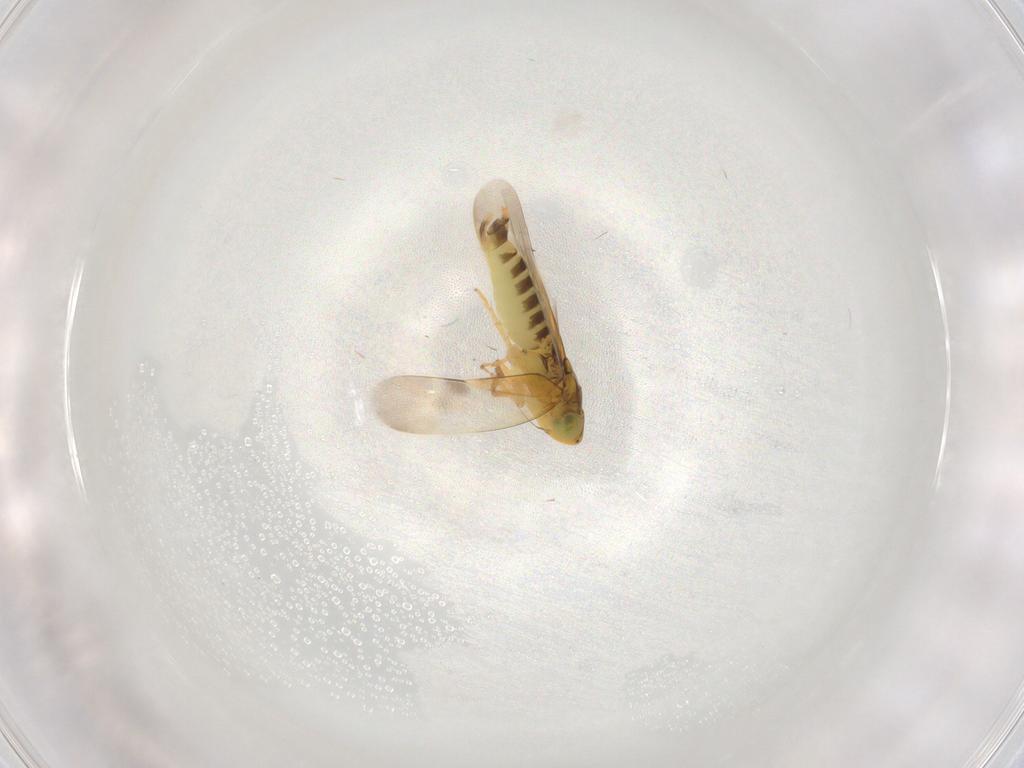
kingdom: Animalia
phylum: Arthropoda
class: Insecta
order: Hemiptera
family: Cicadellidae
